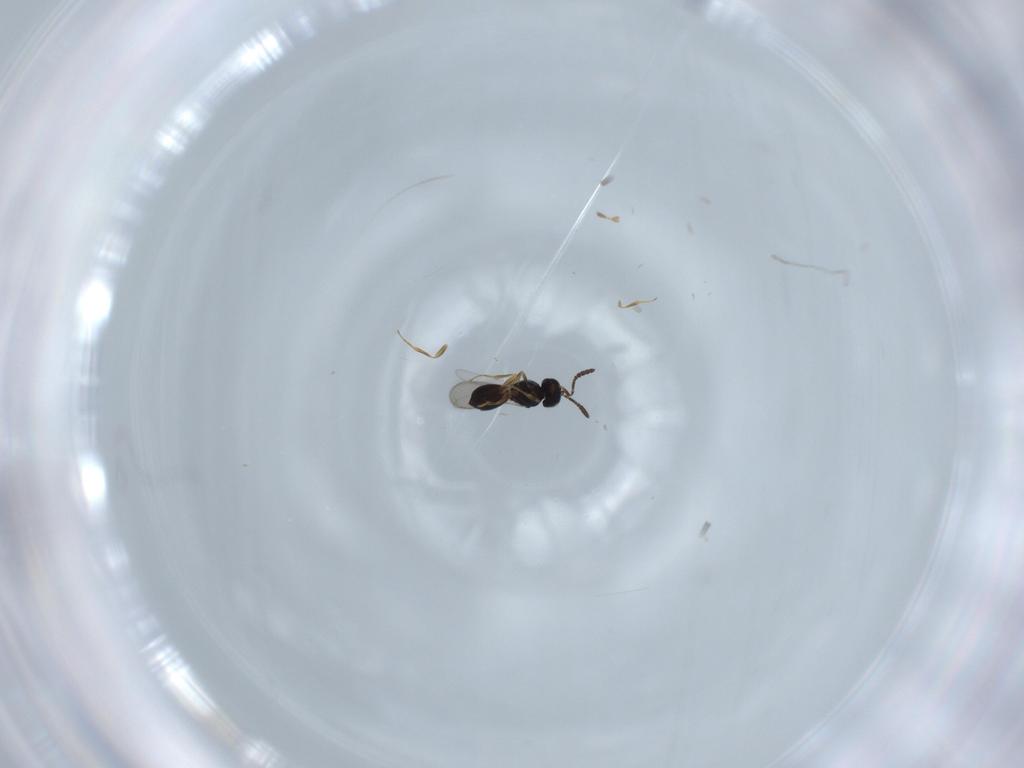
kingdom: Animalia
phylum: Arthropoda
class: Insecta
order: Hymenoptera
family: Scelionidae
